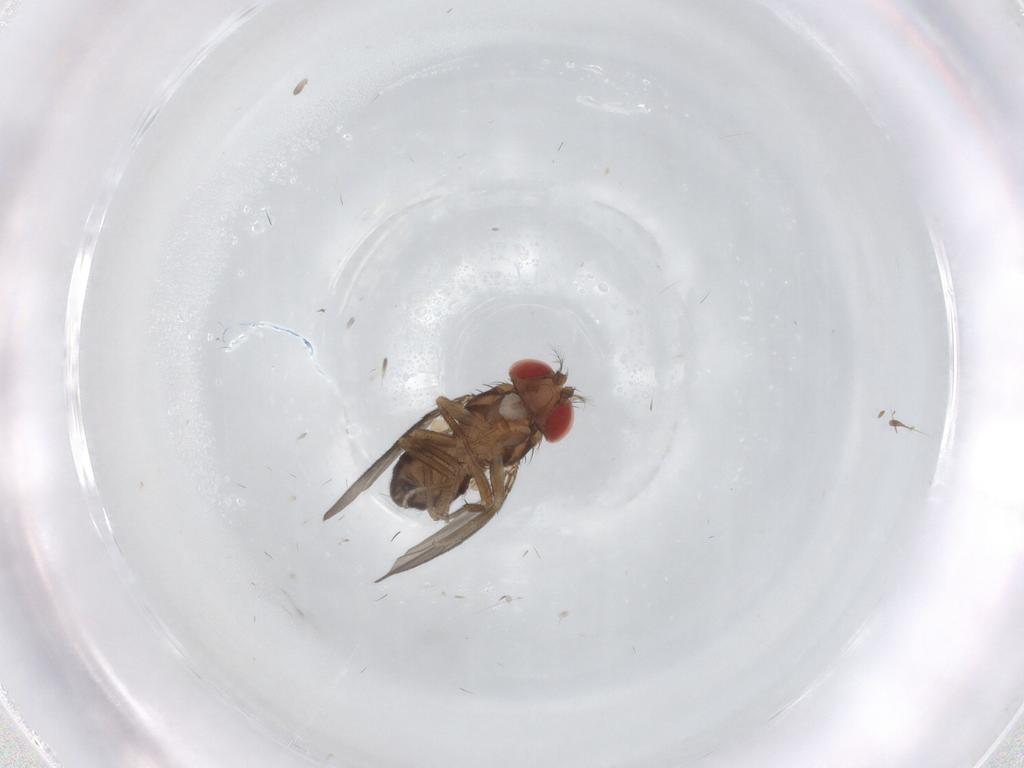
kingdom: Animalia
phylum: Arthropoda
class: Insecta
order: Diptera
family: Drosophilidae
